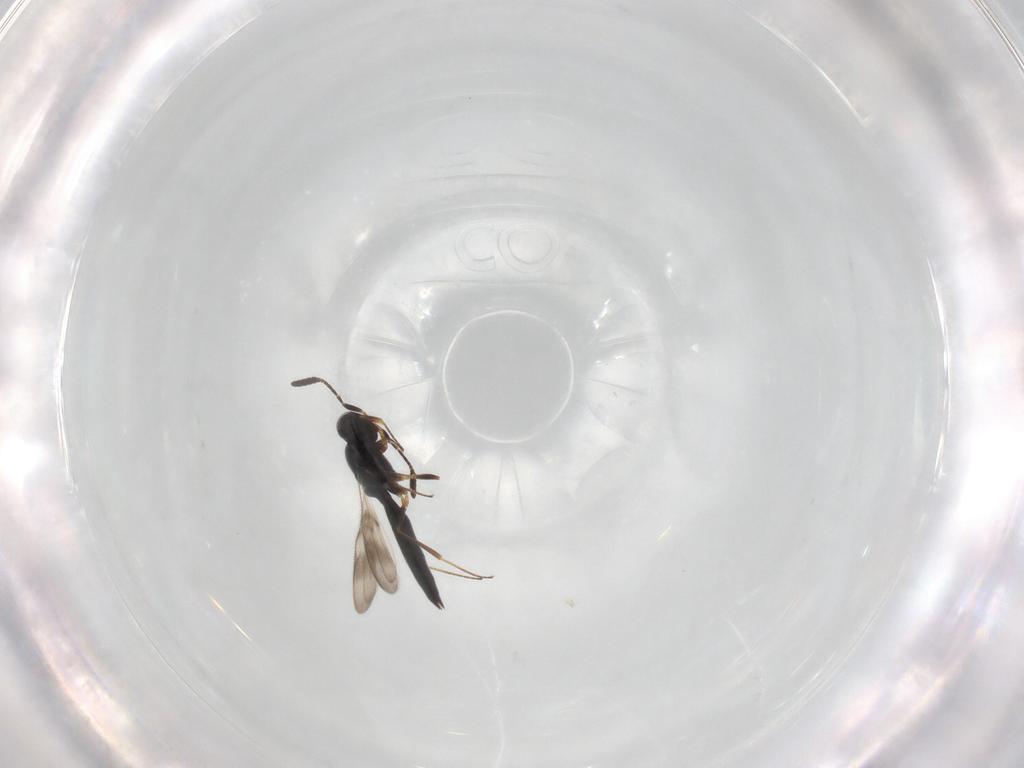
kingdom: Animalia
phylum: Arthropoda
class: Insecta
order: Hymenoptera
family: Scelionidae
